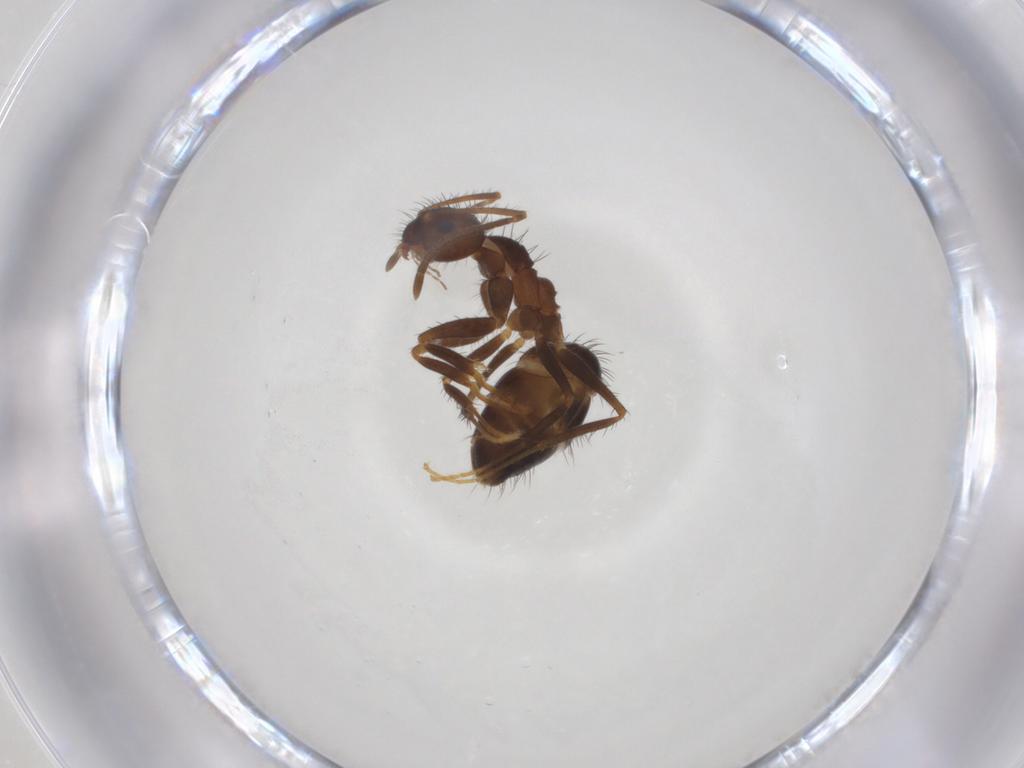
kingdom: Animalia
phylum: Arthropoda
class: Insecta
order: Hymenoptera
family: Formicidae
